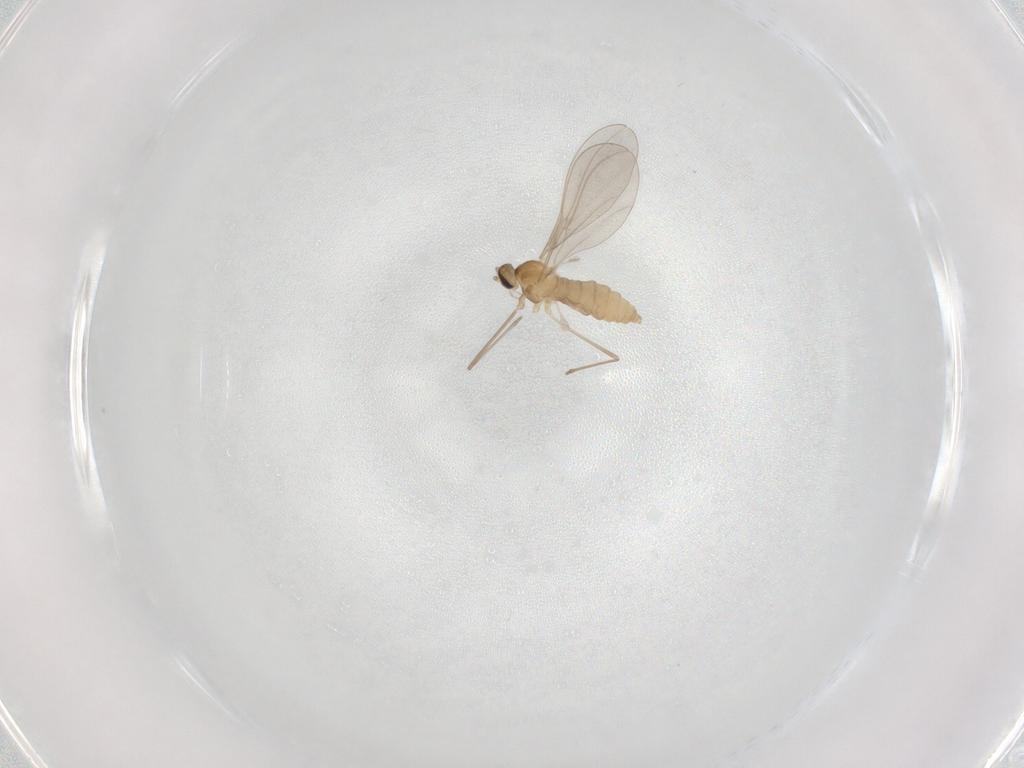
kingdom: Animalia
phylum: Arthropoda
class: Insecta
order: Diptera
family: Cecidomyiidae
